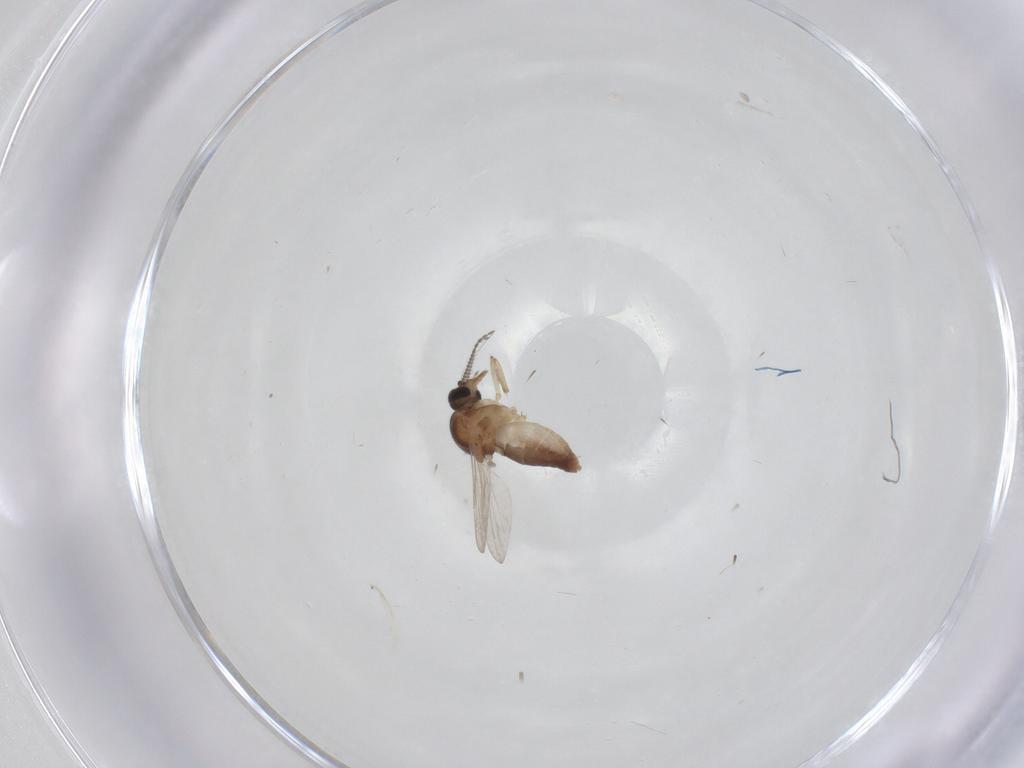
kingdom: Animalia
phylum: Arthropoda
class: Insecta
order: Diptera
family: Ceratopogonidae
